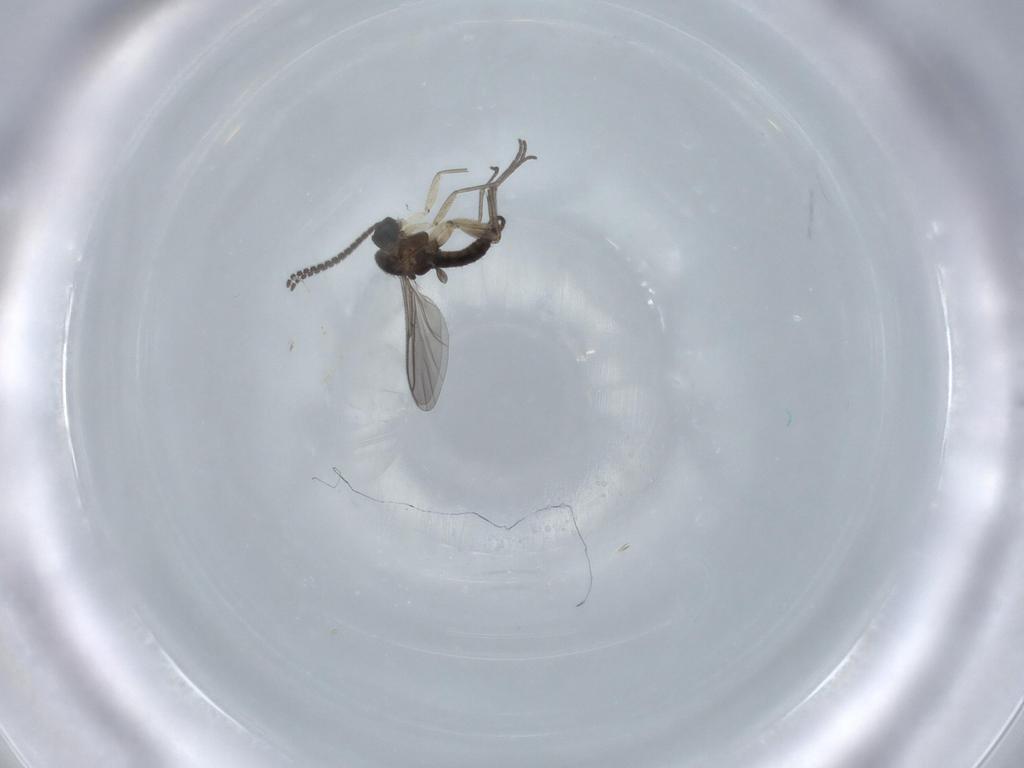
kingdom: Animalia
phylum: Arthropoda
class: Insecta
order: Diptera
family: Sciaridae
